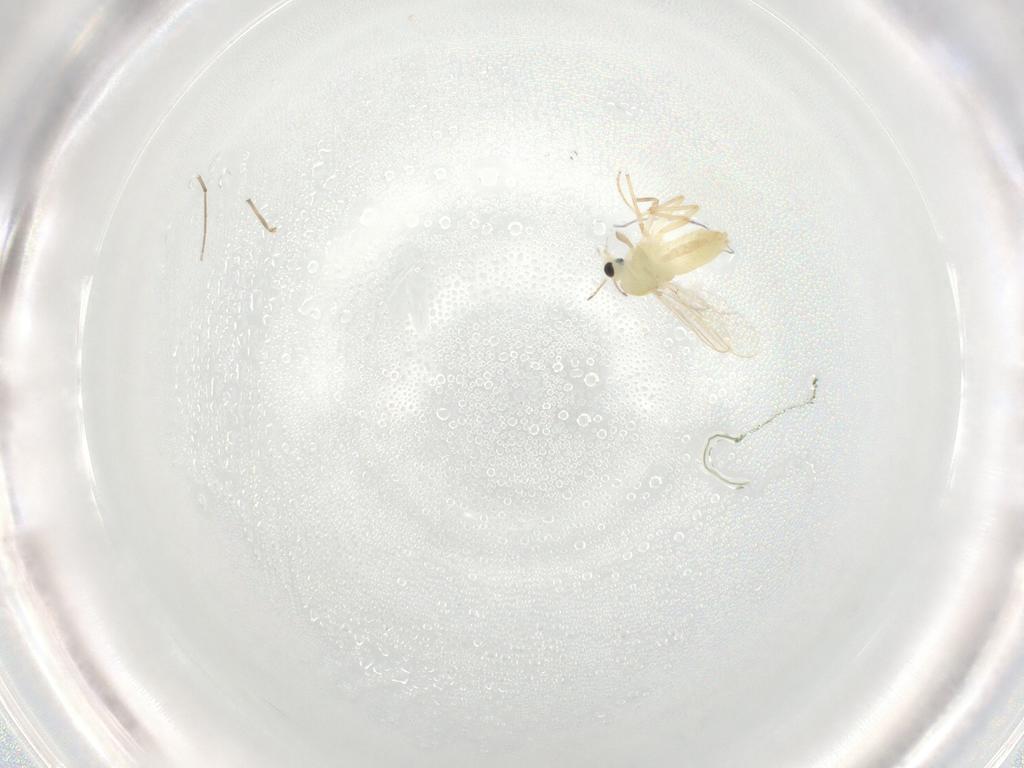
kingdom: Animalia
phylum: Arthropoda
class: Insecta
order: Diptera
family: Chironomidae
